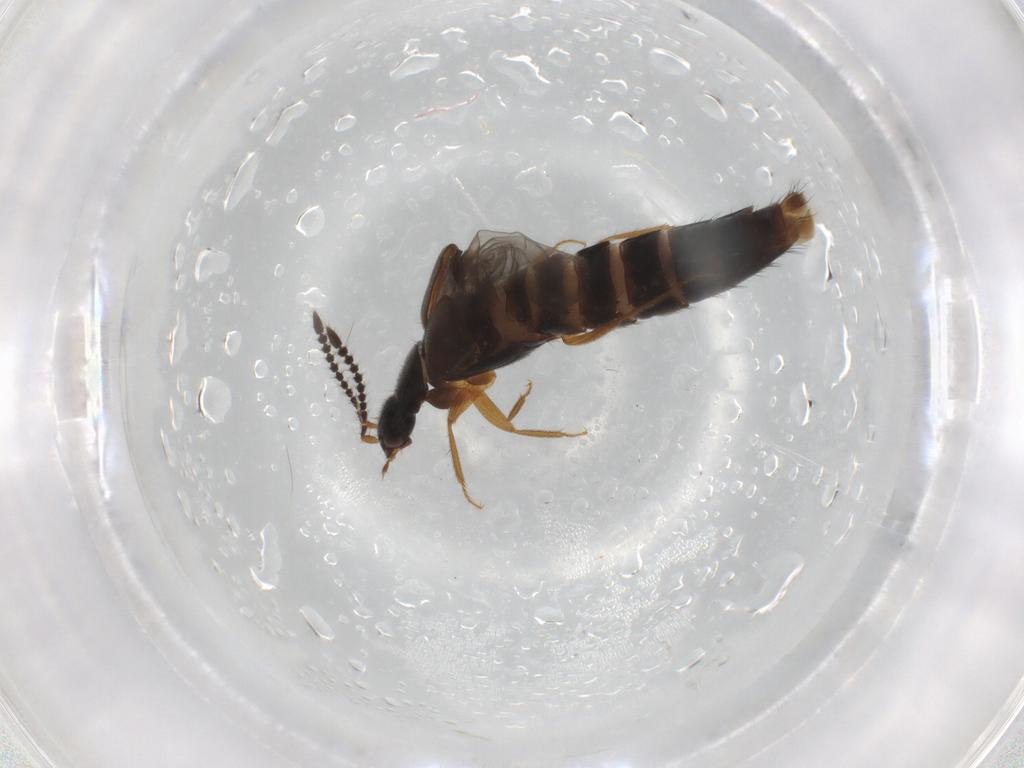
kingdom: Animalia
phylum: Arthropoda
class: Insecta
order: Coleoptera
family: Staphylinidae
